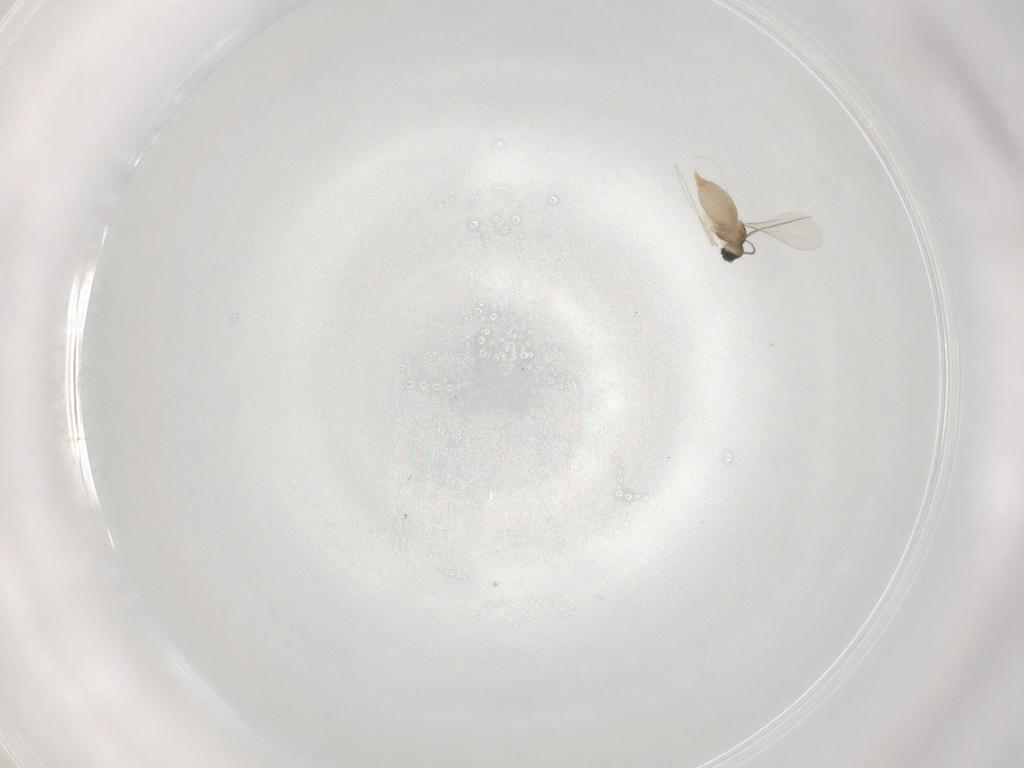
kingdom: Animalia
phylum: Arthropoda
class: Insecta
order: Diptera
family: Cecidomyiidae
